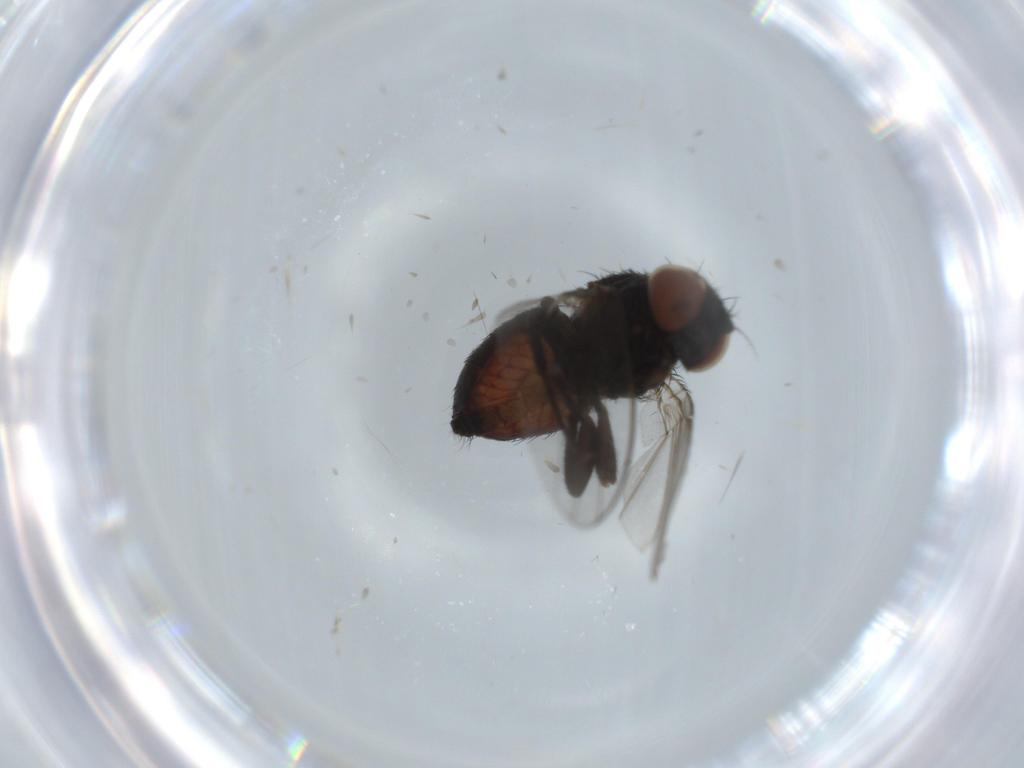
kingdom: Animalia
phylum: Arthropoda
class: Insecta
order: Diptera
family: Milichiidae
